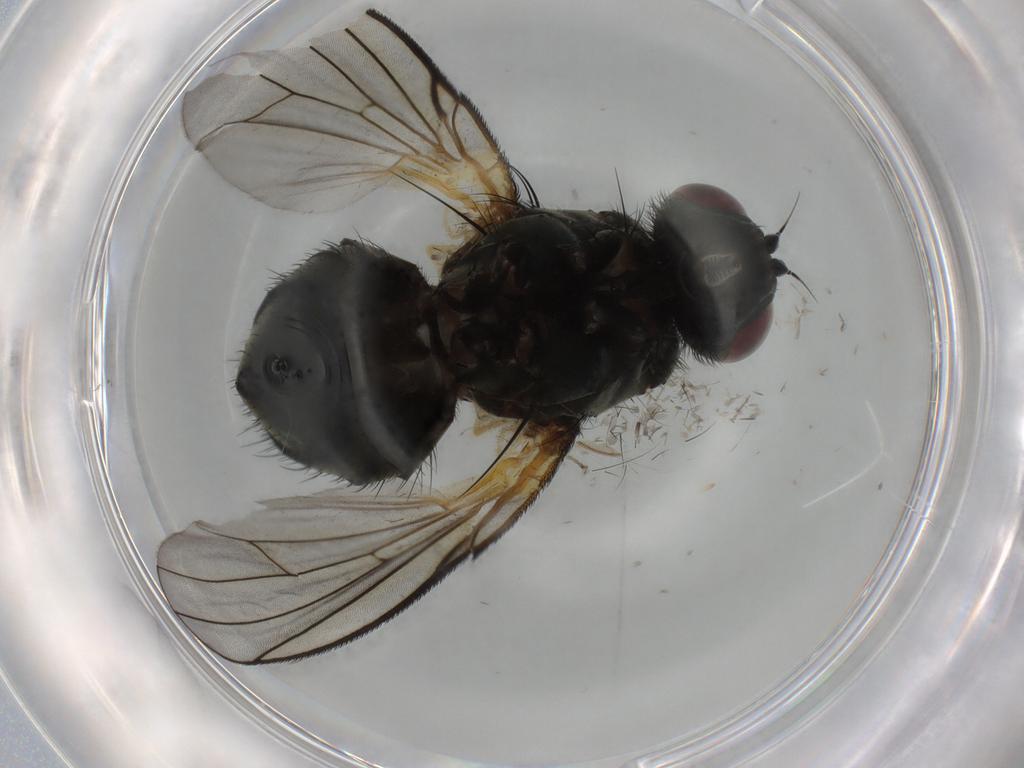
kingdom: Animalia
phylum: Arthropoda
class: Insecta
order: Diptera
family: Muscidae
